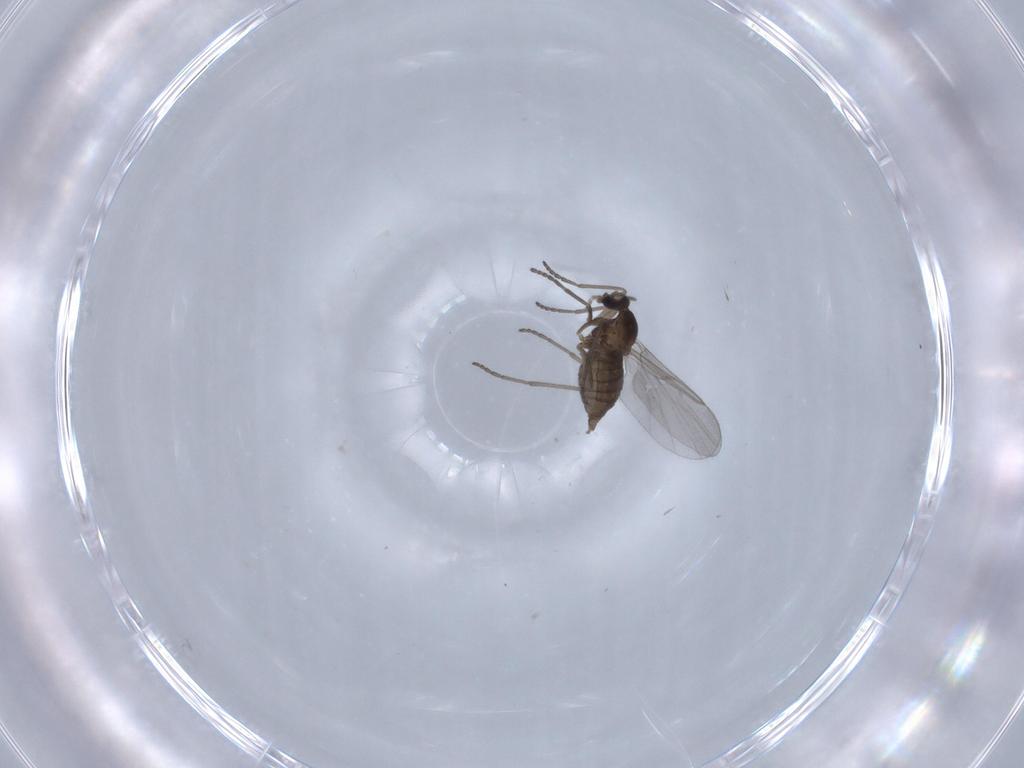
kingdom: Animalia
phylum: Arthropoda
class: Insecta
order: Diptera
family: Cecidomyiidae
